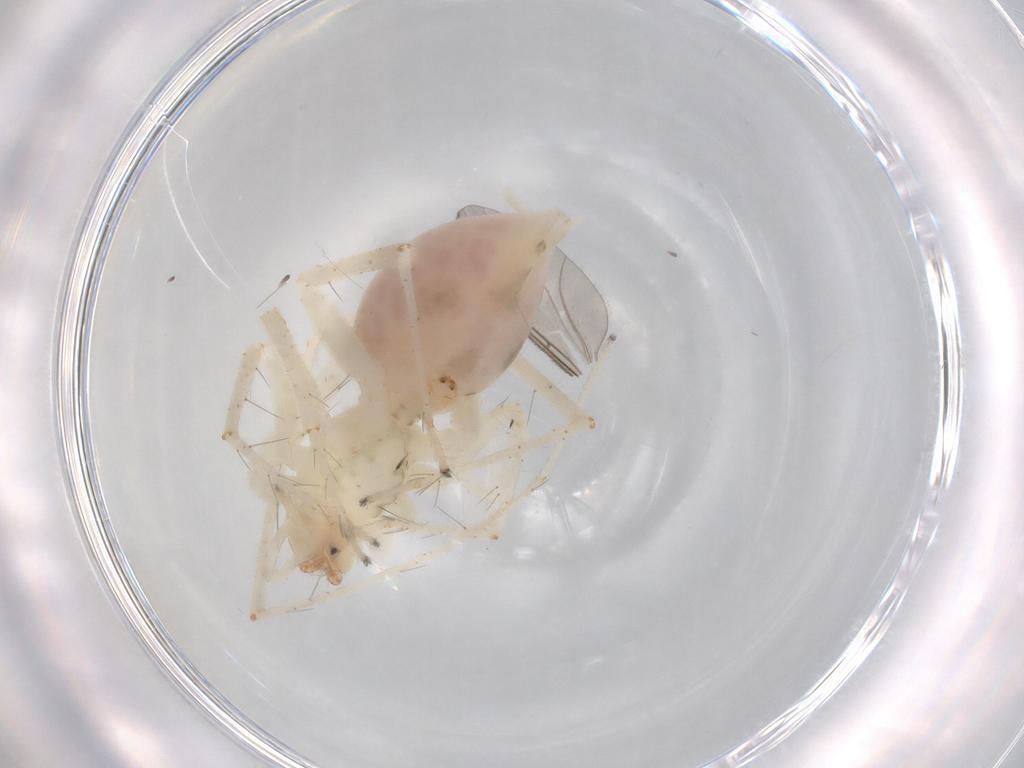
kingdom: Animalia
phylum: Arthropoda
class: Arachnida
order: Araneae
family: Anyphaenidae
